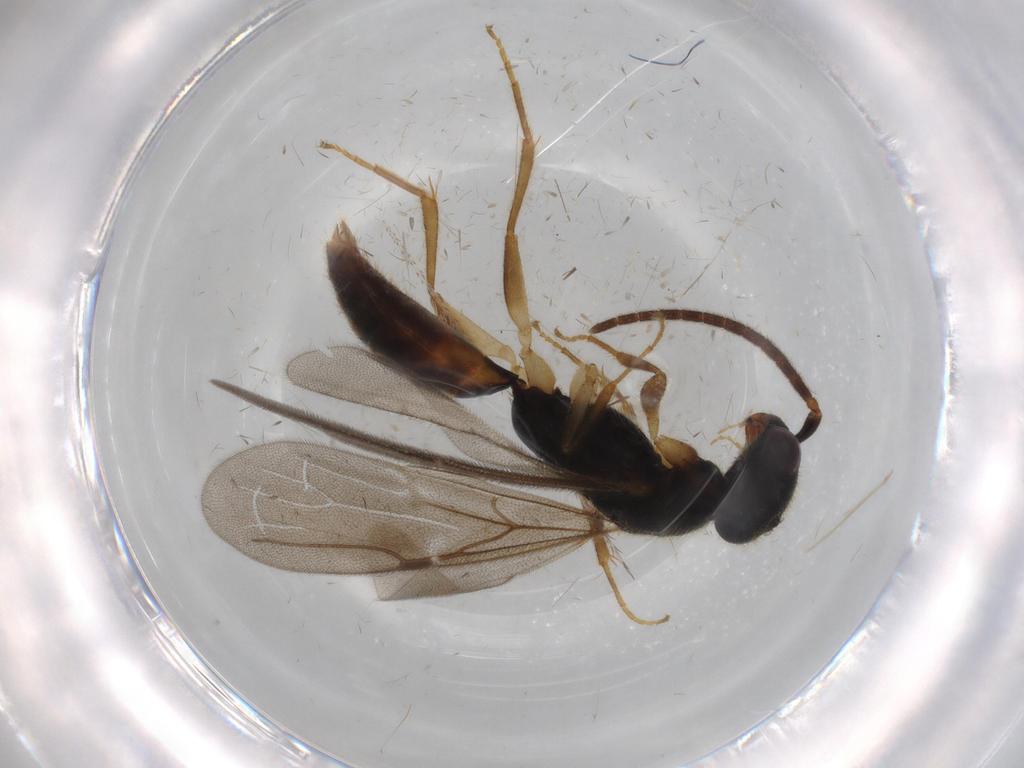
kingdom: Animalia
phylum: Arthropoda
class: Insecta
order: Hymenoptera
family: Bethylidae
